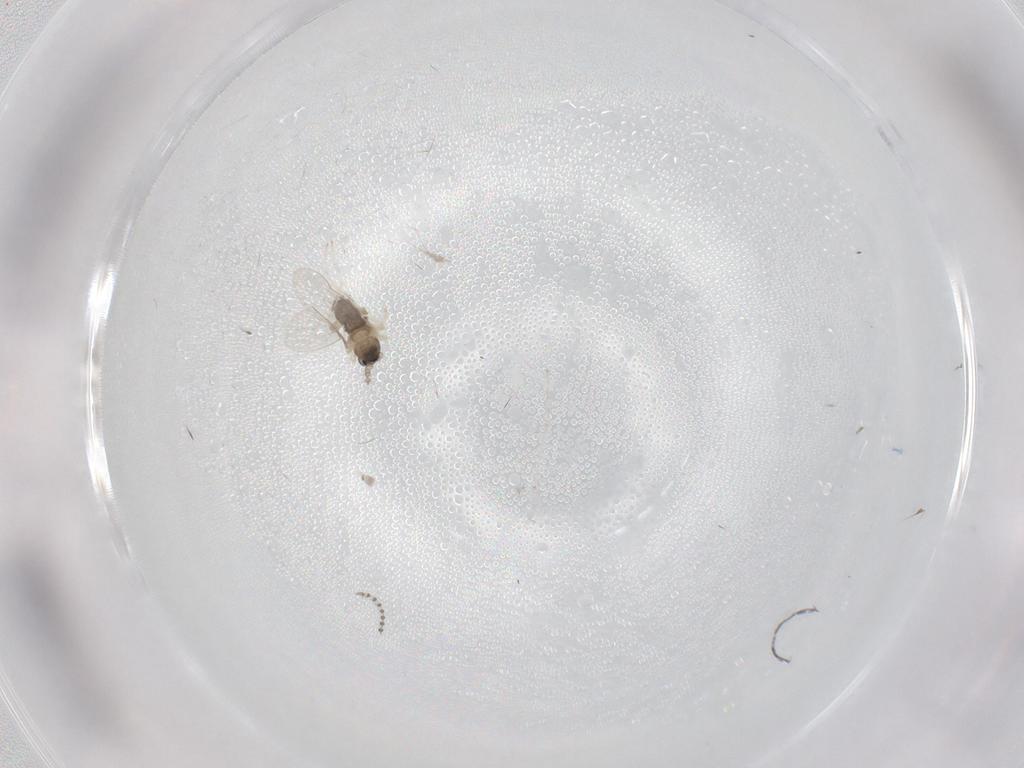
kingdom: Animalia
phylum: Arthropoda
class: Insecta
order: Diptera
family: Cecidomyiidae
